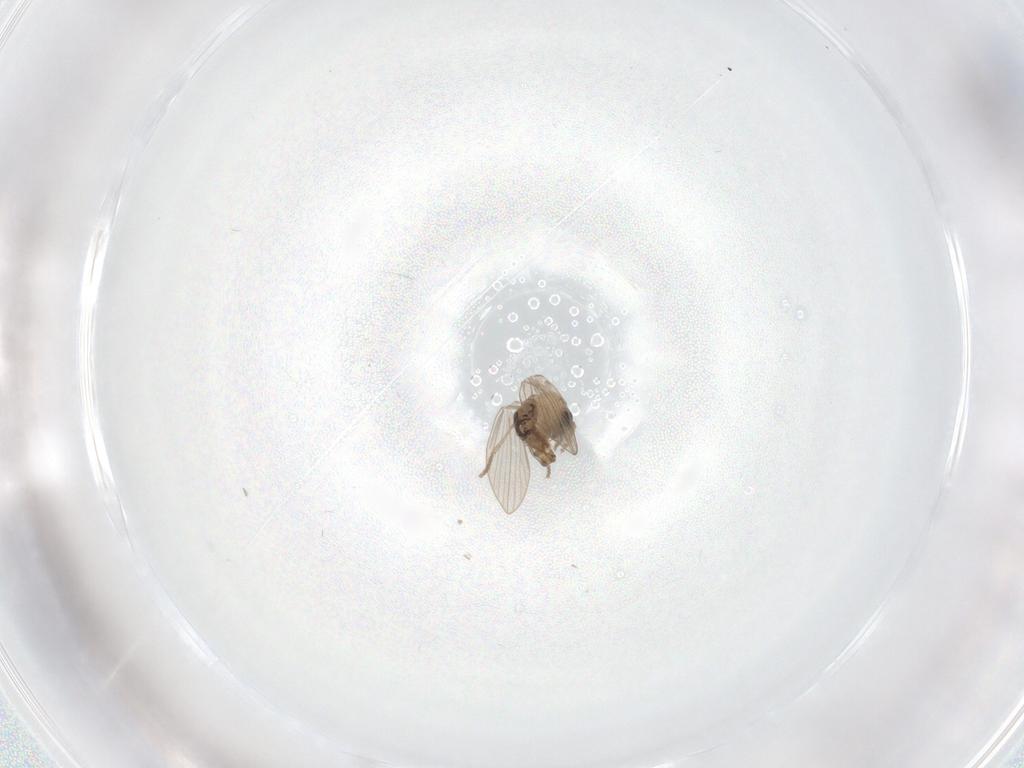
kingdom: Animalia
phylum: Arthropoda
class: Insecta
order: Diptera
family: Psychodidae
